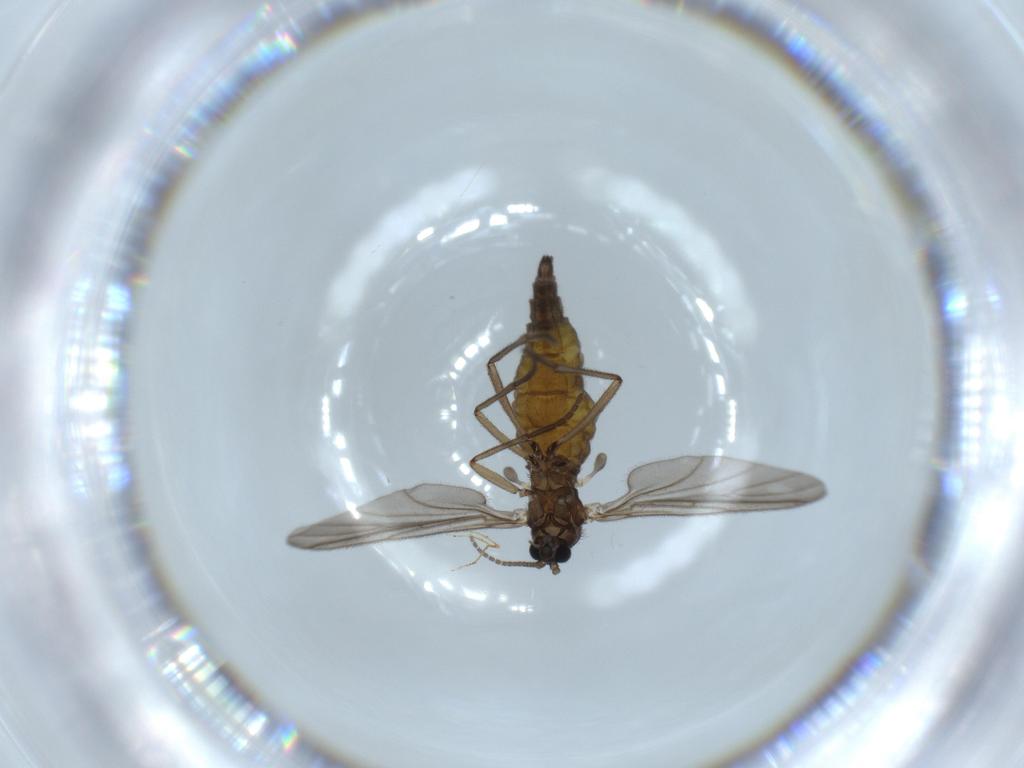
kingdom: Animalia
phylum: Arthropoda
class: Insecta
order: Diptera
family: Sciaridae
